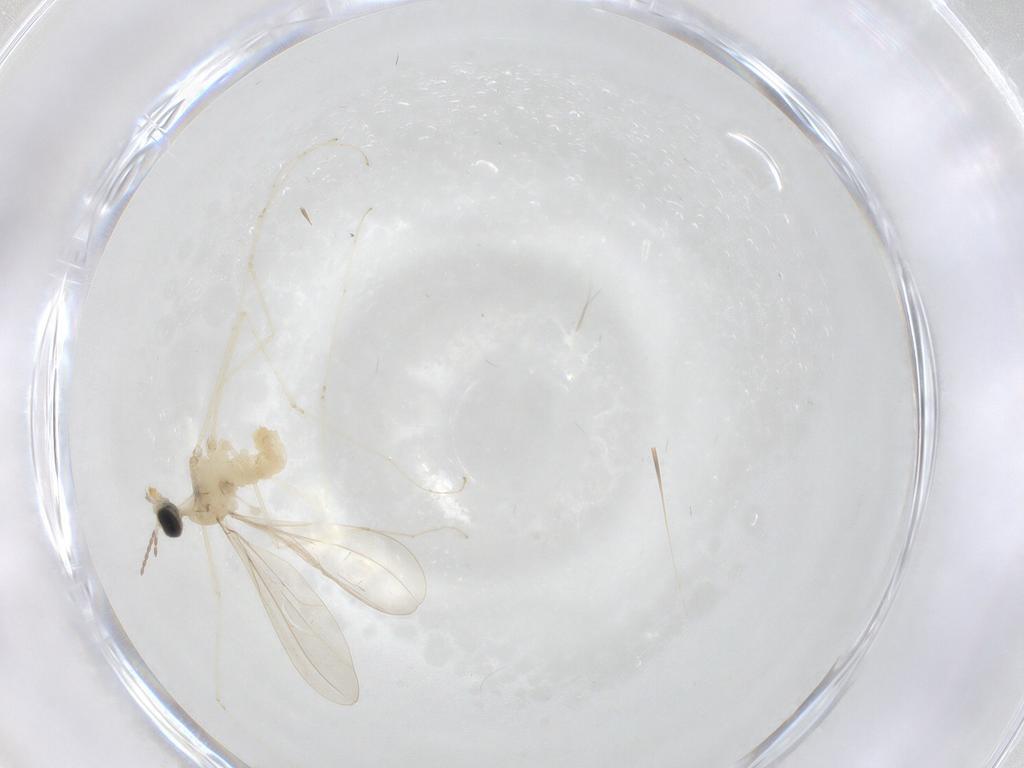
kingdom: Animalia
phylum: Arthropoda
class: Insecta
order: Diptera
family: Cecidomyiidae
